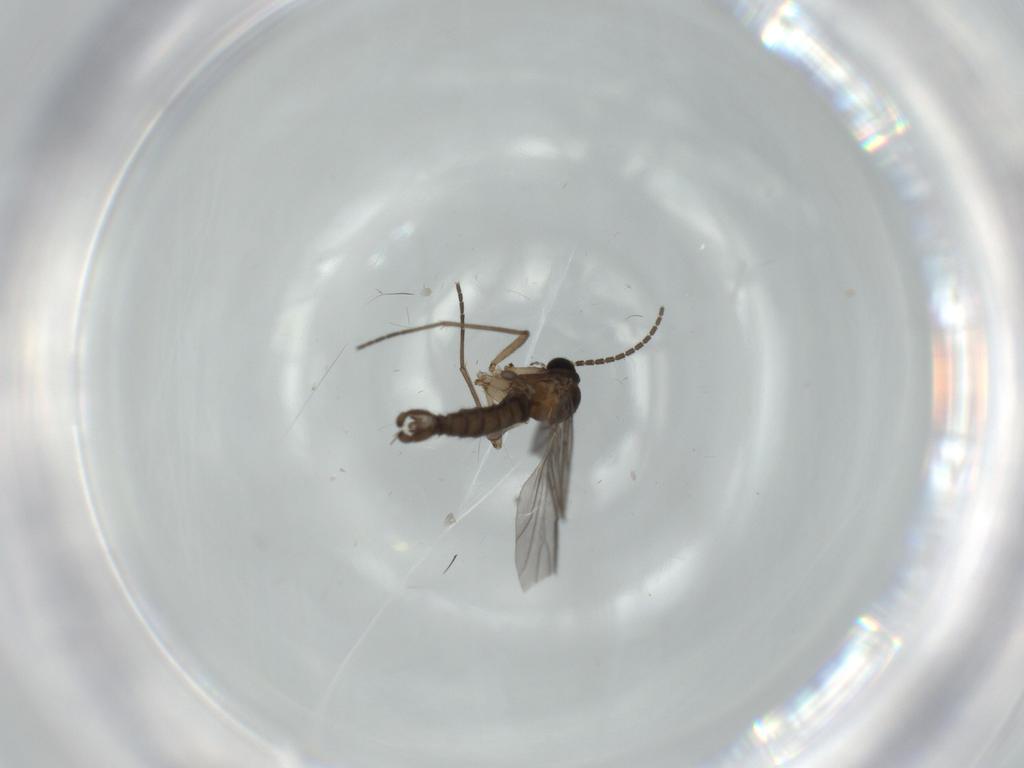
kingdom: Animalia
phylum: Arthropoda
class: Insecta
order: Diptera
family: Sciaridae
